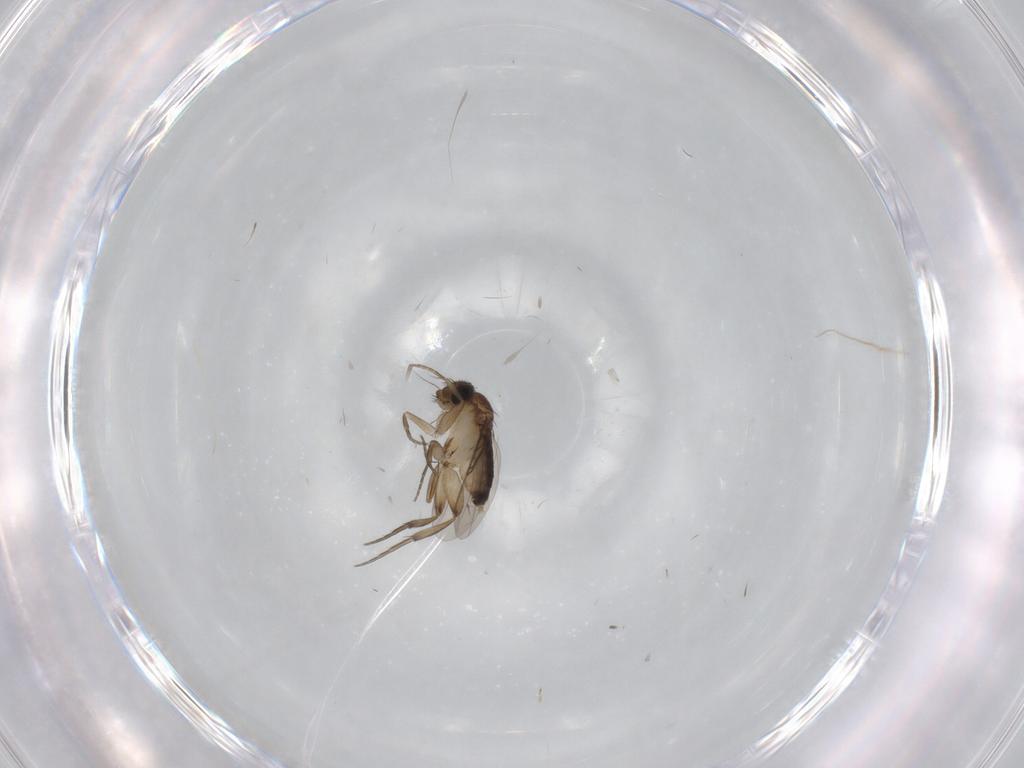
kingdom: Animalia
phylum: Arthropoda
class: Insecta
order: Diptera
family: Phoridae
